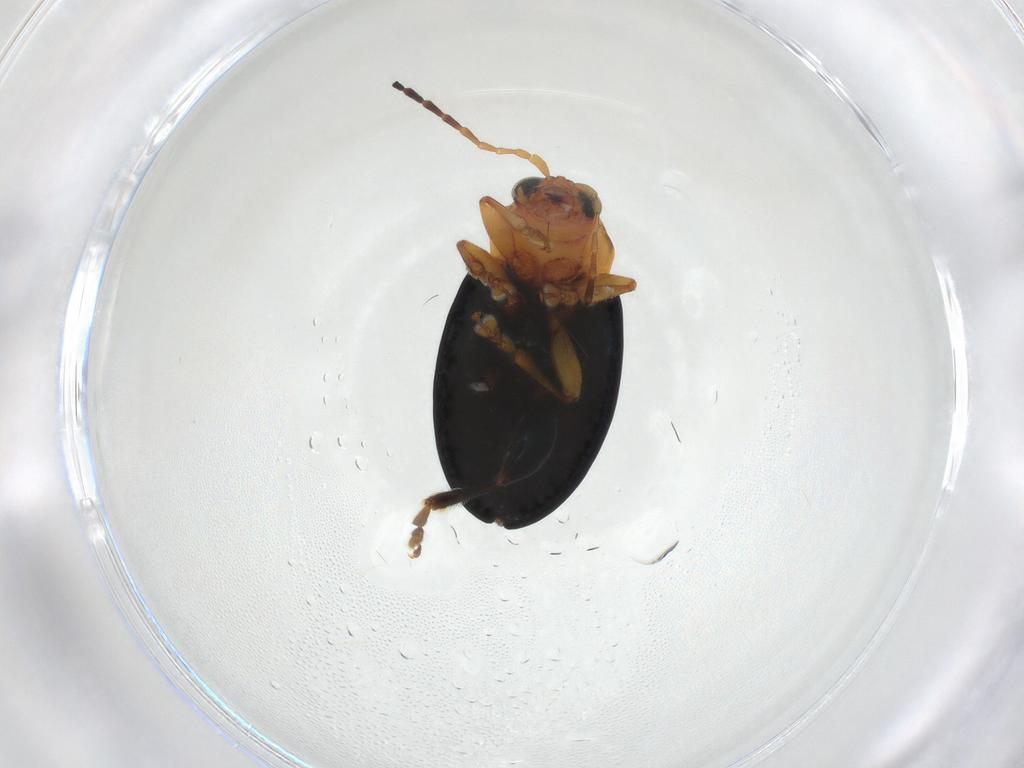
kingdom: Animalia
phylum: Arthropoda
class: Insecta
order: Coleoptera
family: Chrysomelidae
